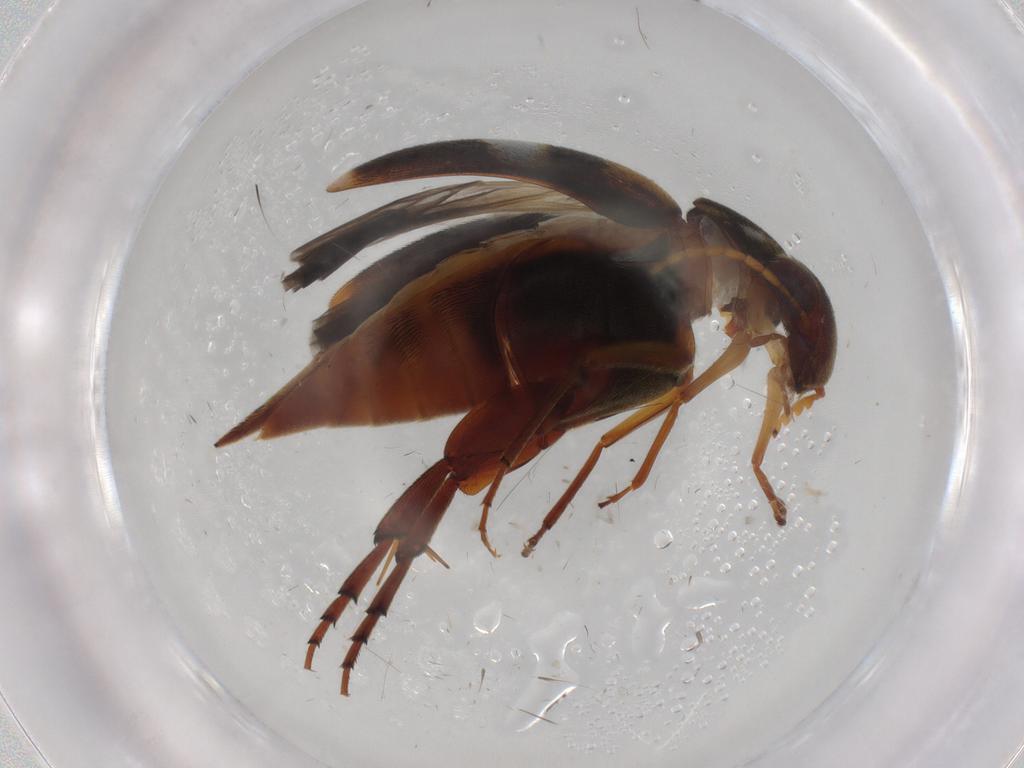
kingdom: Animalia
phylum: Arthropoda
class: Insecta
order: Coleoptera
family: Mordellidae
